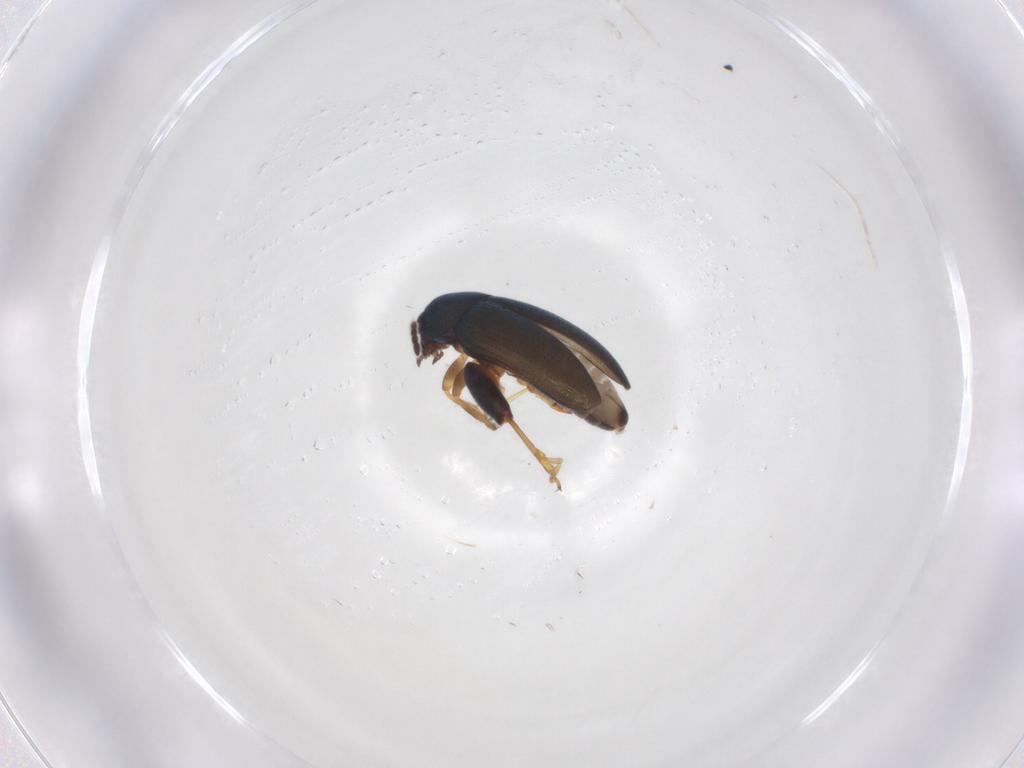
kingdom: Animalia
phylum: Arthropoda
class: Insecta
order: Coleoptera
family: Chrysomelidae
